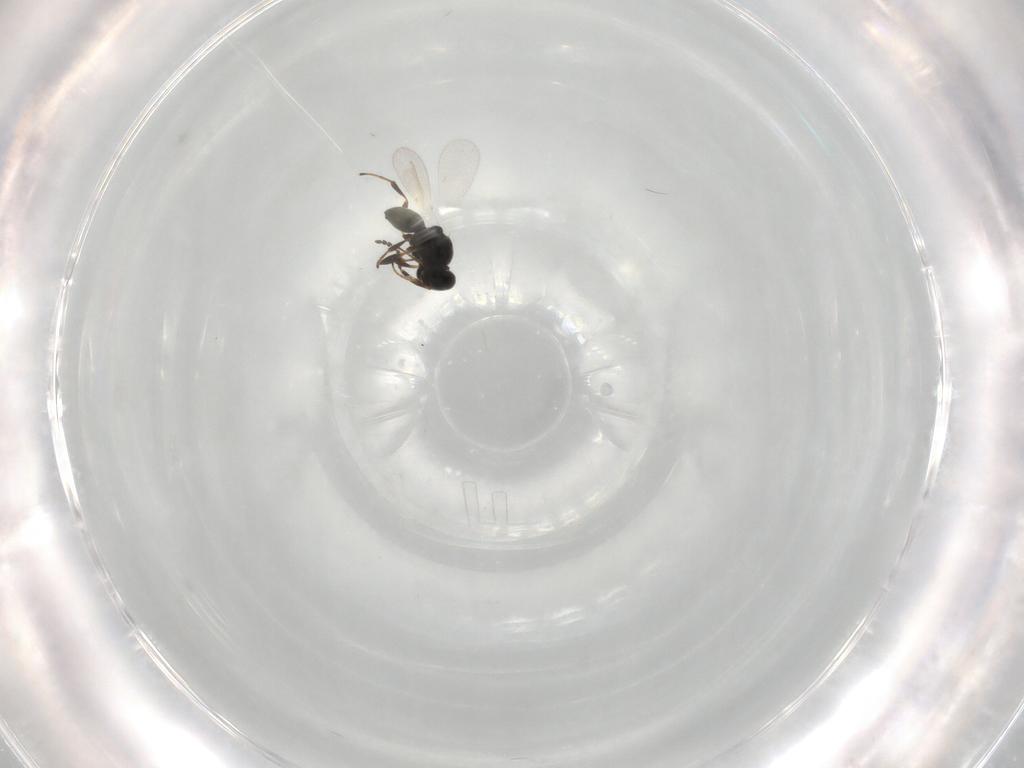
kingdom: Animalia
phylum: Arthropoda
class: Insecta
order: Hymenoptera
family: Platygastridae
